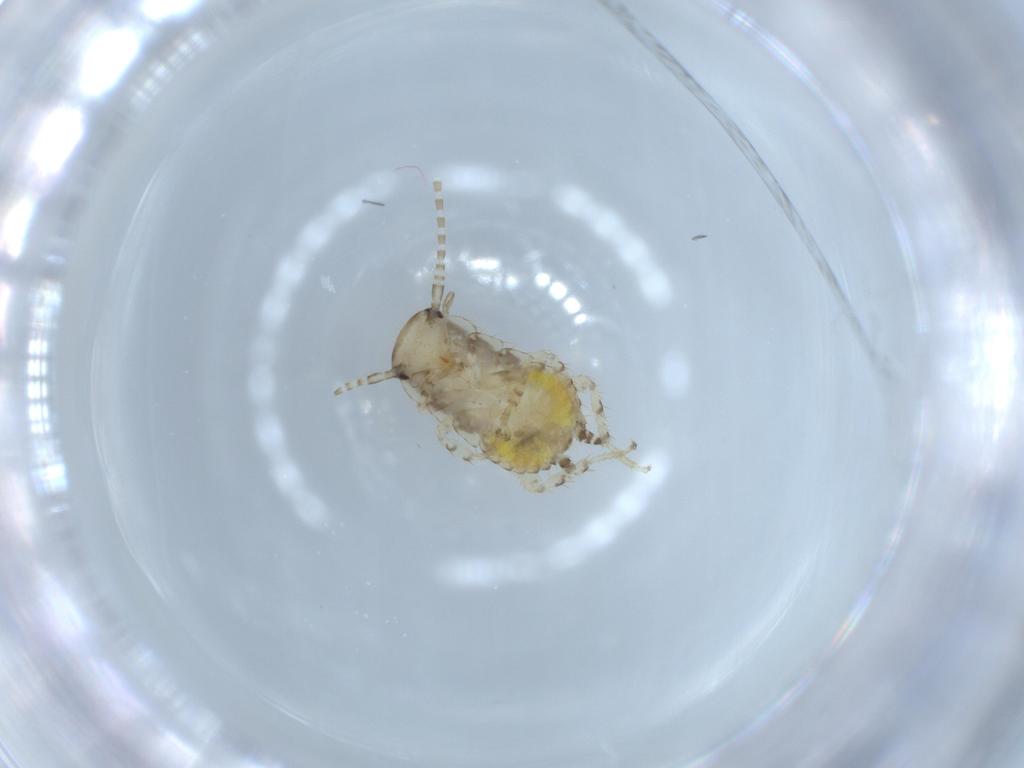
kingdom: Animalia
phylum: Arthropoda
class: Insecta
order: Blattodea
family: Ectobiidae
